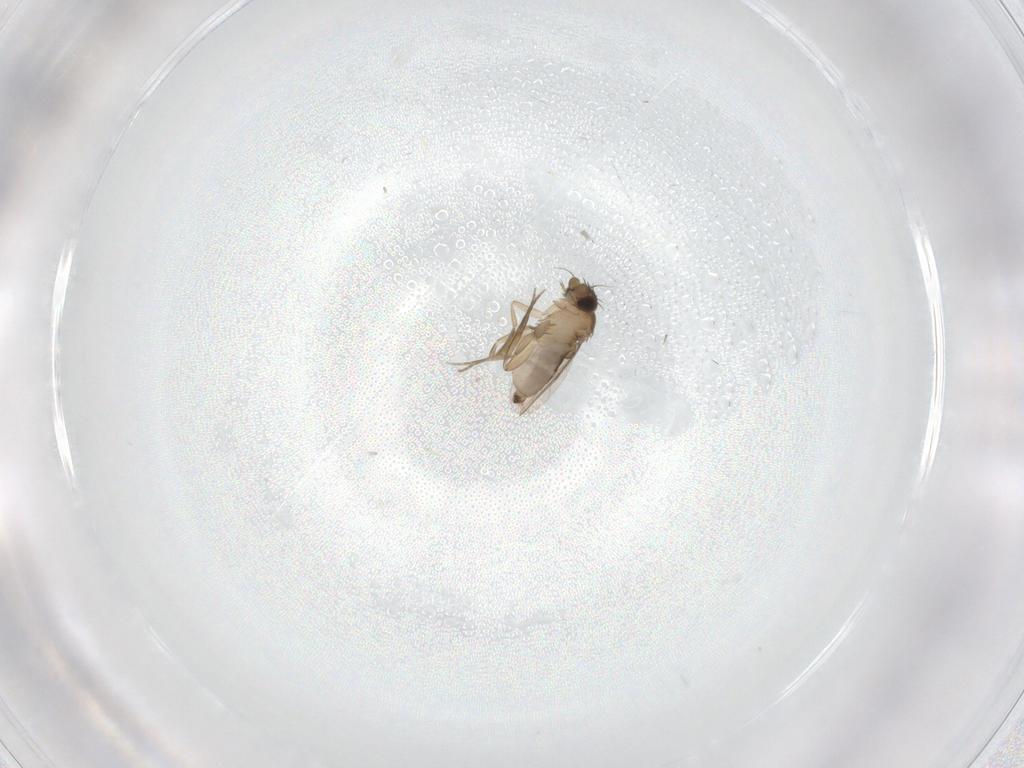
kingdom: Animalia
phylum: Arthropoda
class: Insecta
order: Diptera
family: Phoridae
